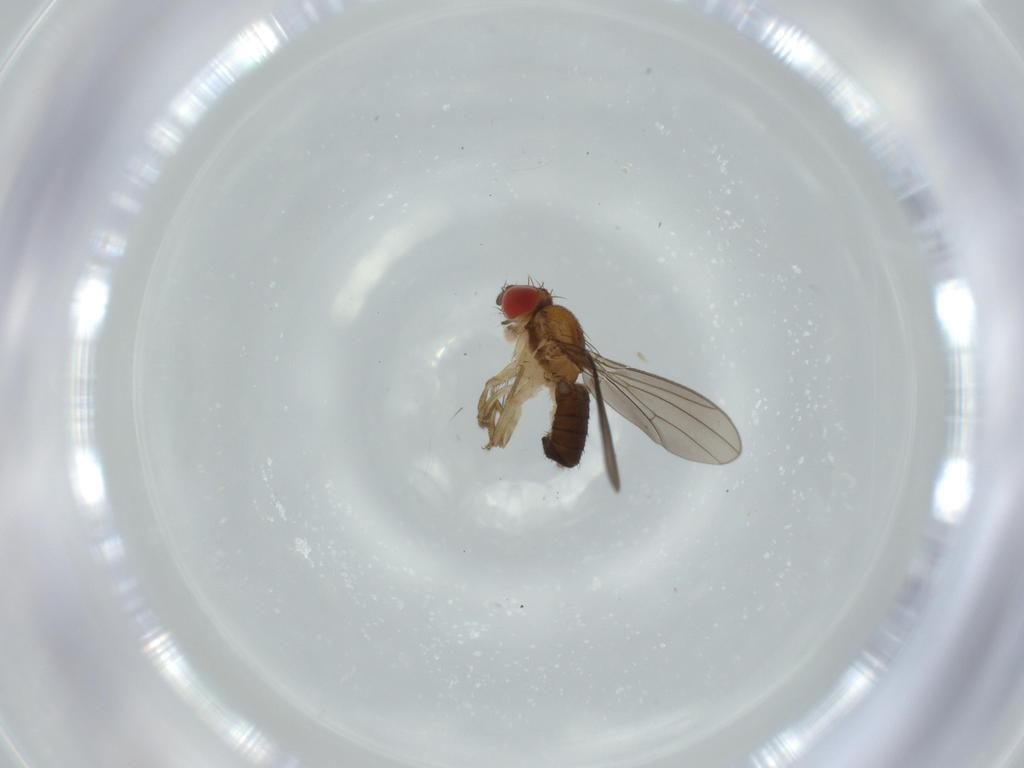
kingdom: Animalia
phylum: Arthropoda
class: Insecta
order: Diptera
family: Drosophilidae
